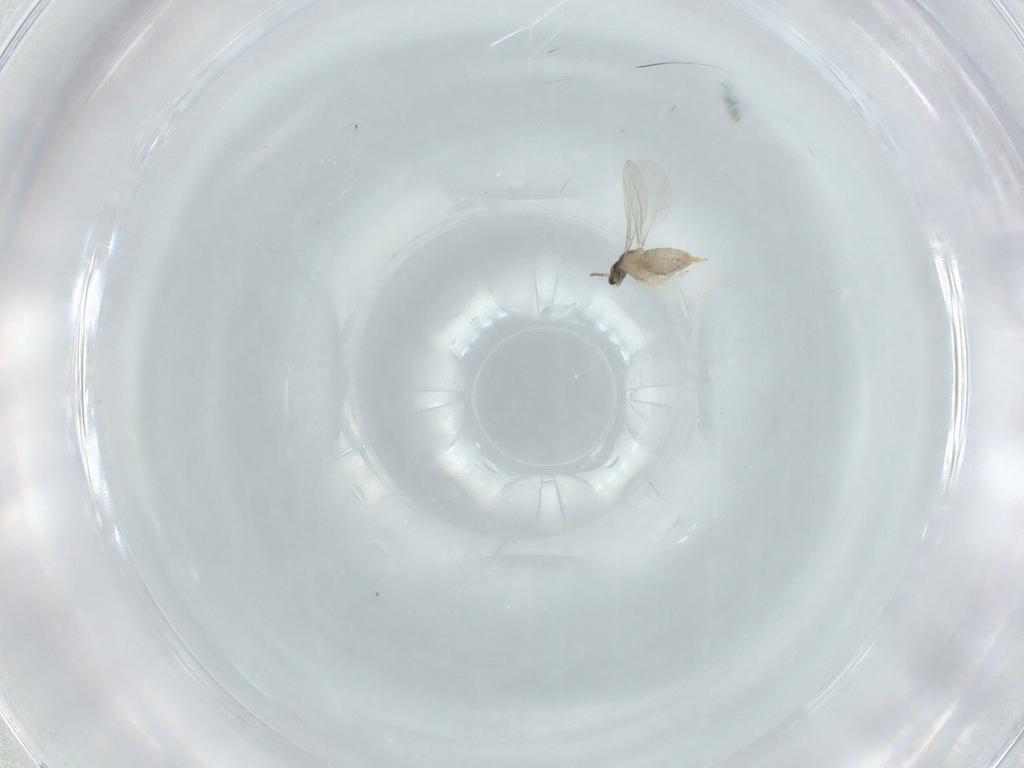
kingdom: Animalia
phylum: Arthropoda
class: Insecta
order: Diptera
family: Cecidomyiidae
